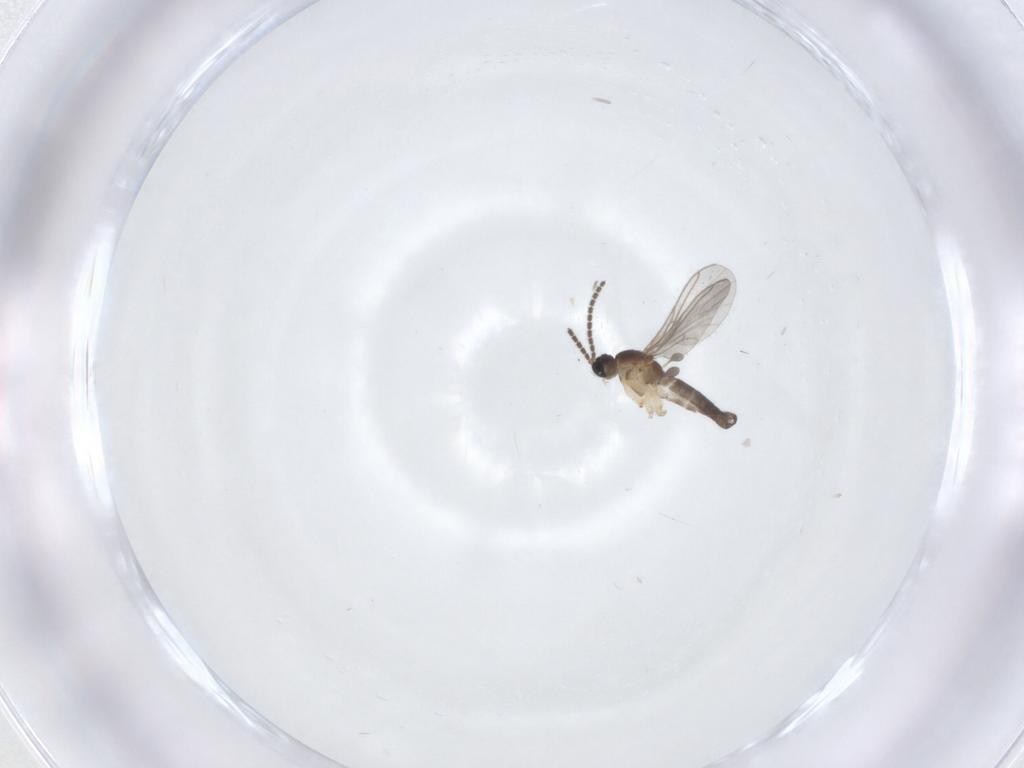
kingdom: Animalia
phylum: Arthropoda
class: Insecta
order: Diptera
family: Sciaridae
